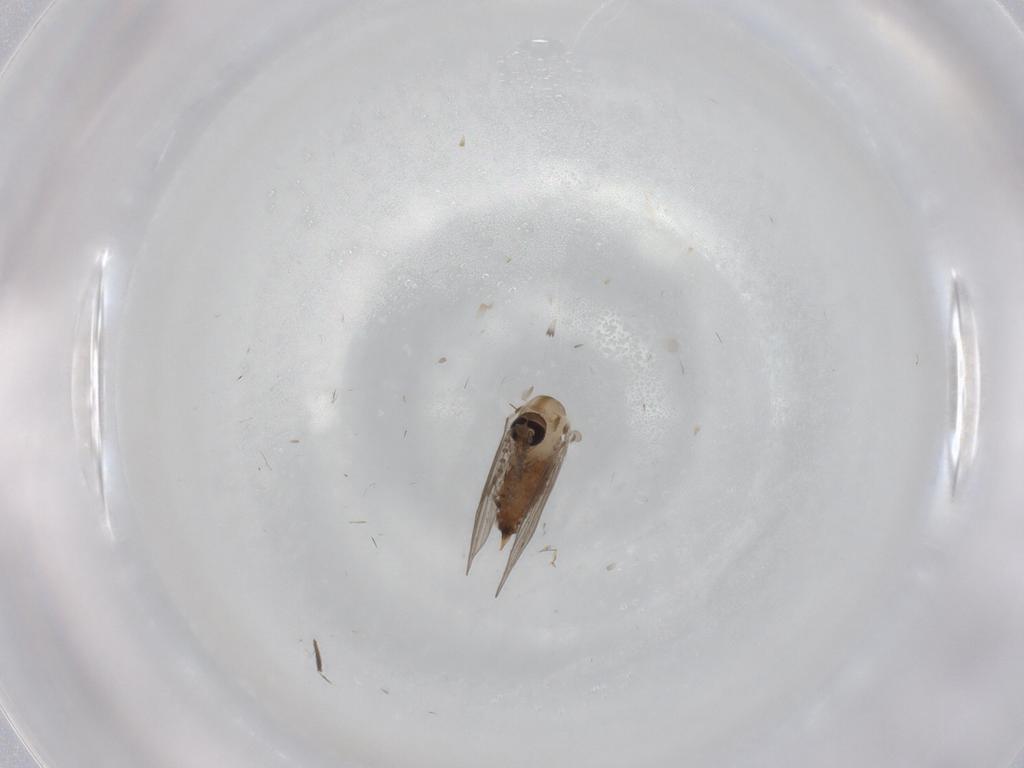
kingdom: Animalia
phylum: Arthropoda
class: Insecta
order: Diptera
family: Psychodidae
